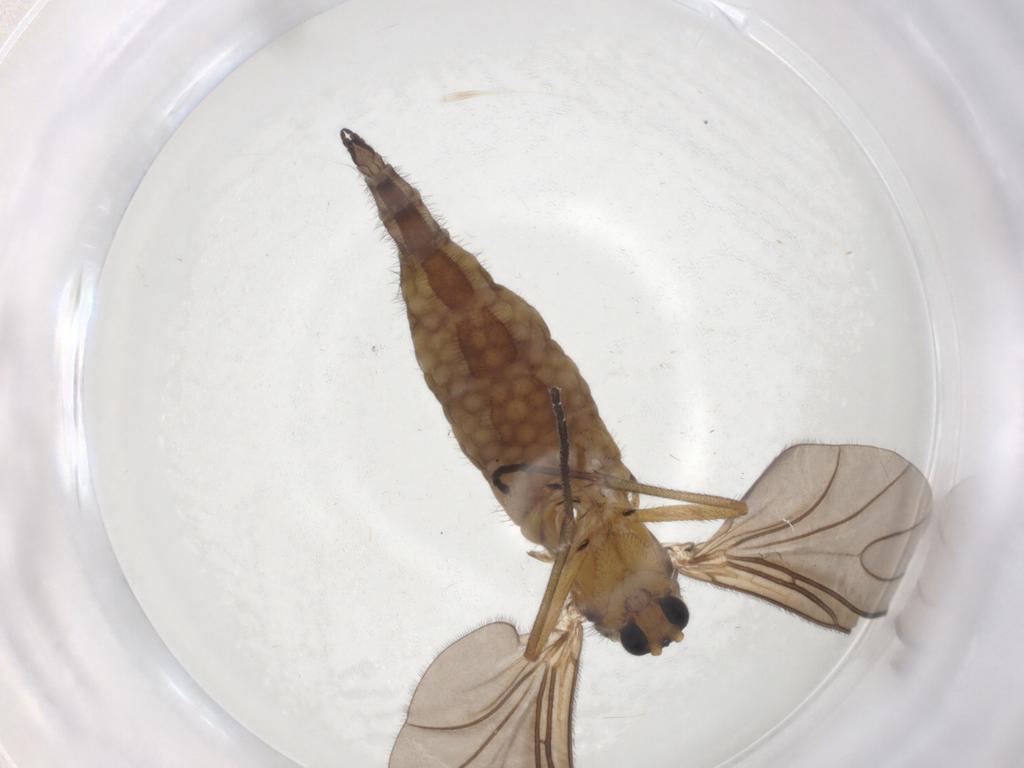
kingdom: Animalia
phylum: Arthropoda
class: Insecta
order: Diptera
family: Sciaridae
